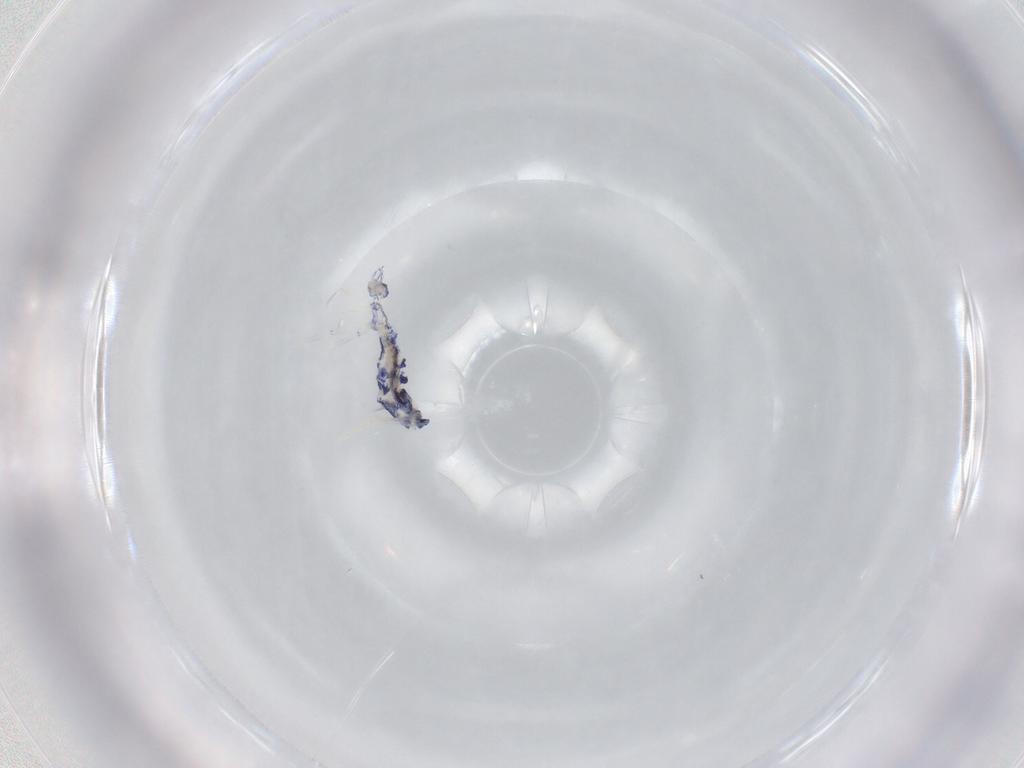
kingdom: Animalia
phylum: Arthropoda
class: Collembola
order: Entomobryomorpha
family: Entomobryidae
